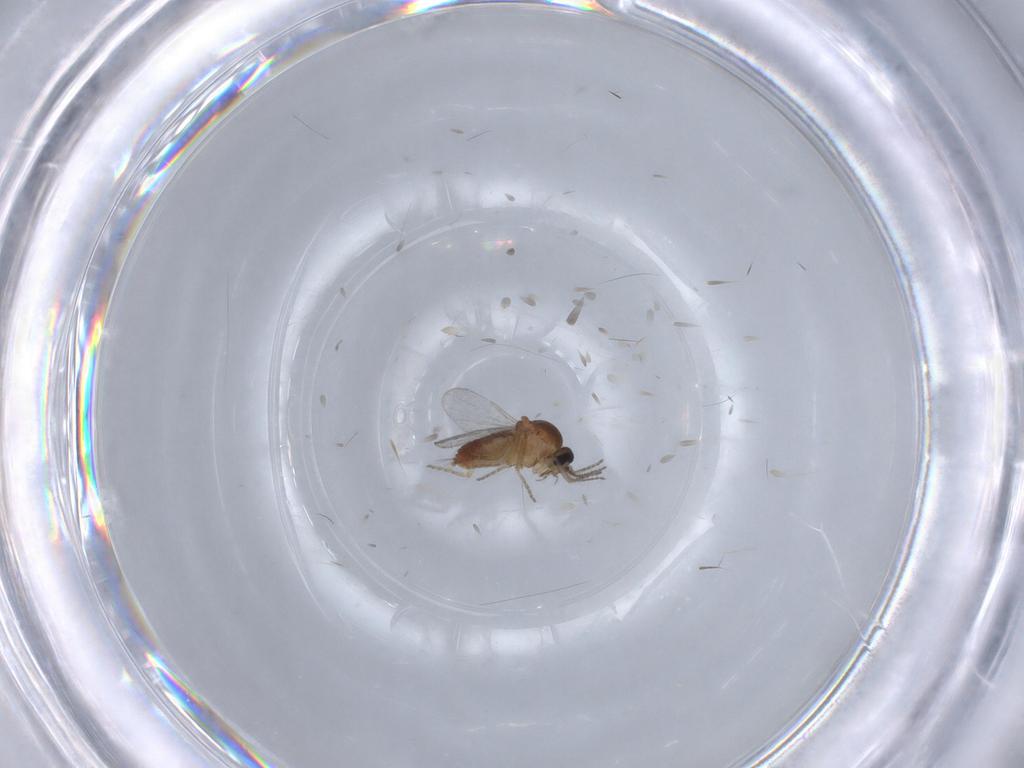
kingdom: Animalia
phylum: Arthropoda
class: Insecta
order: Diptera
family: Ceratopogonidae
